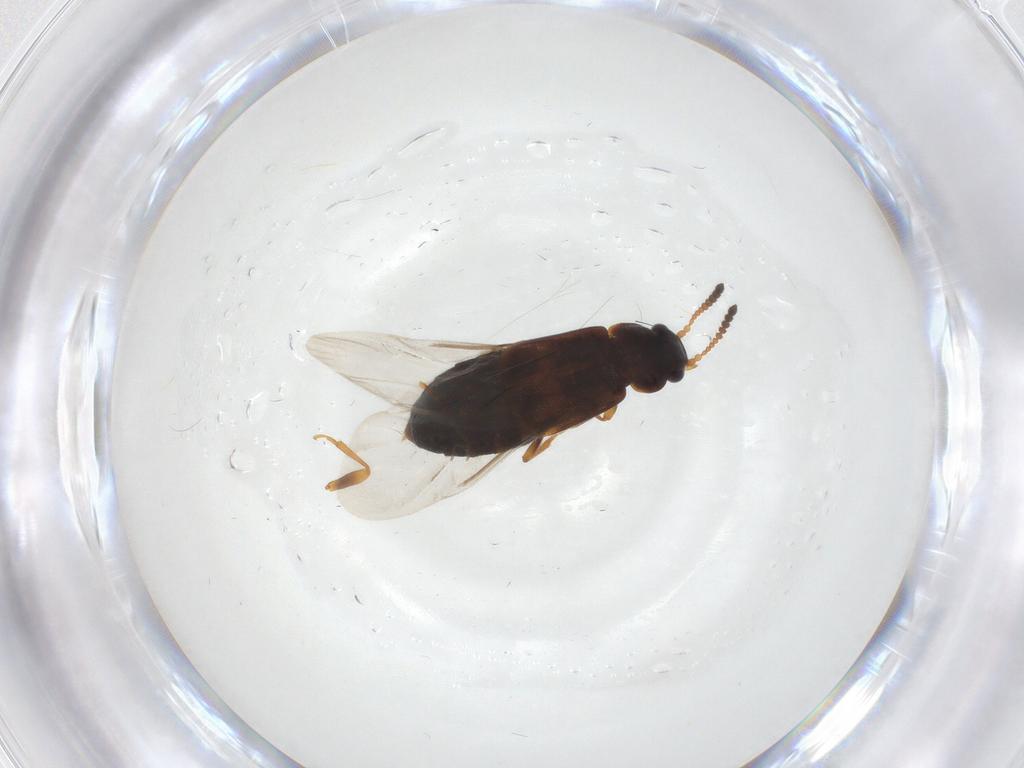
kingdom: Animalia
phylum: Arthropoda
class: Insecta
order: Coleoptera
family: Staphylinidae
